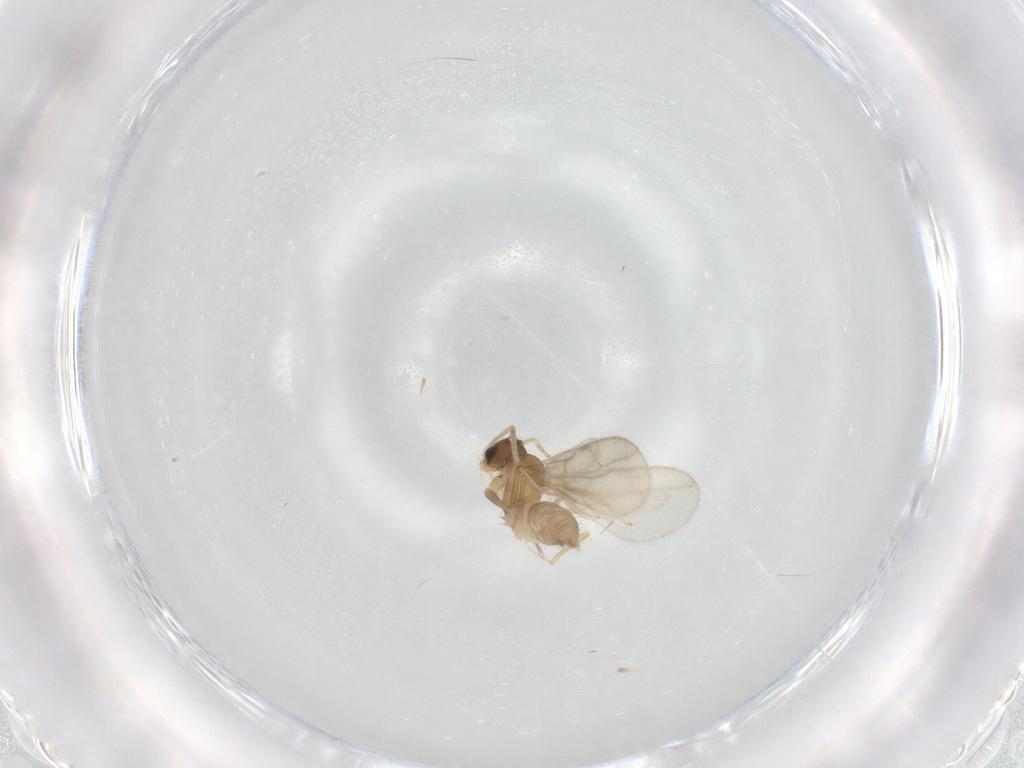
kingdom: Animalia
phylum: Arthropoda
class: Insecta
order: Hymenoptera
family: Formicidae
